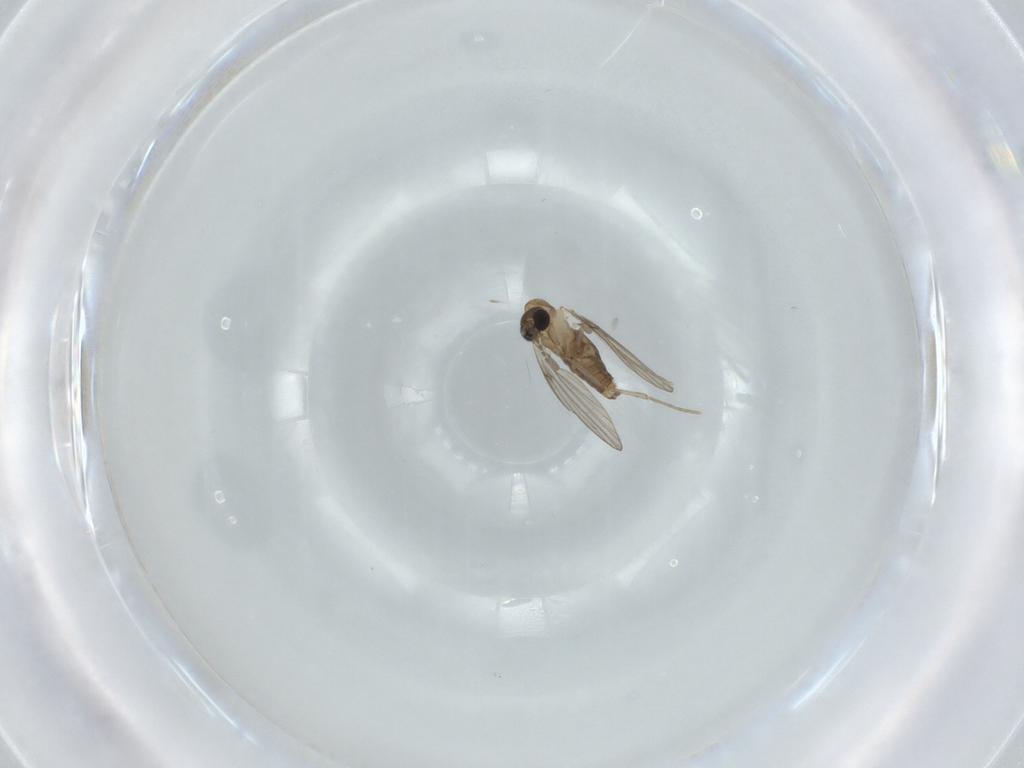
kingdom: Animalia
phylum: Arthropoda
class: Insecta
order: Diptera
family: Psychodidae
